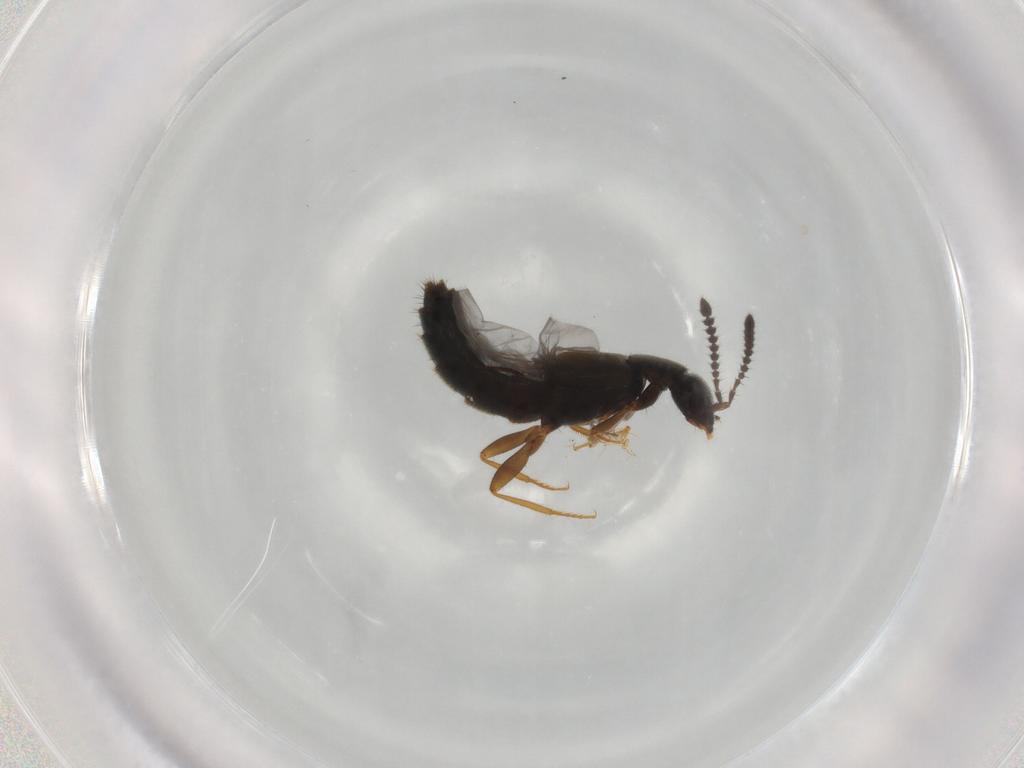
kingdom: Animalia
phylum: Arthropoda
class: Insecta
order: Coleoptera
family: Staphylinidae
